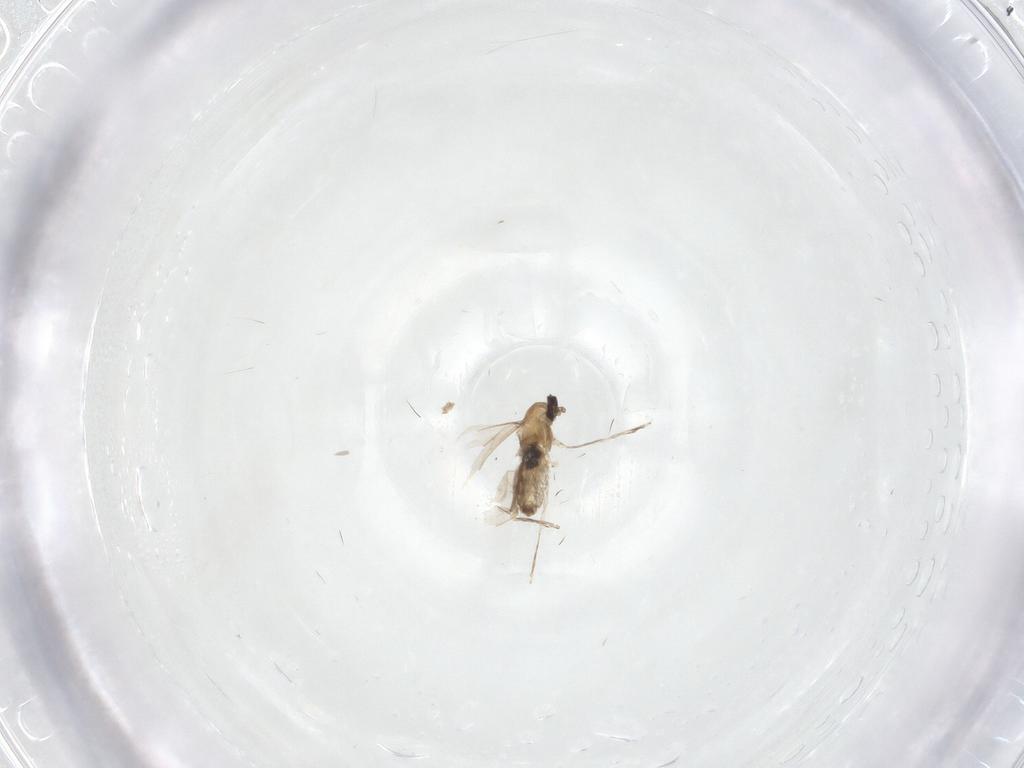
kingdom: Animalia
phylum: Arthropoda
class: Insecta
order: Diptera
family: Phoridae
